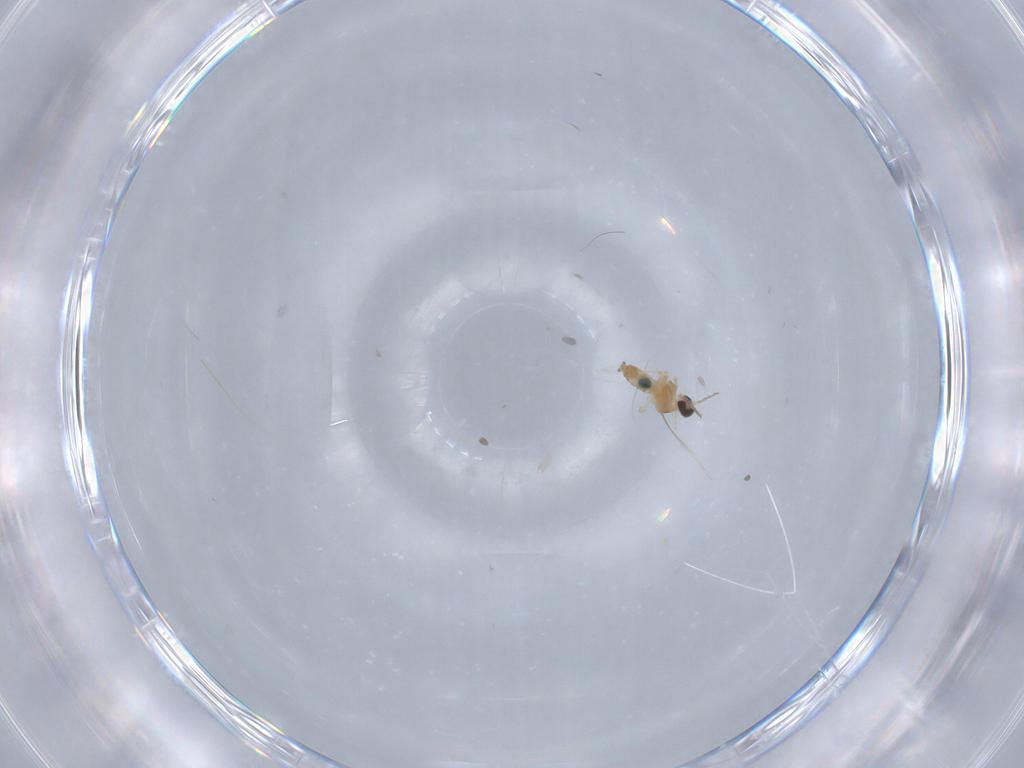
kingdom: Animalia
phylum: Arthropoda
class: Insecta
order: Diptera
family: Cecidomyiidae
